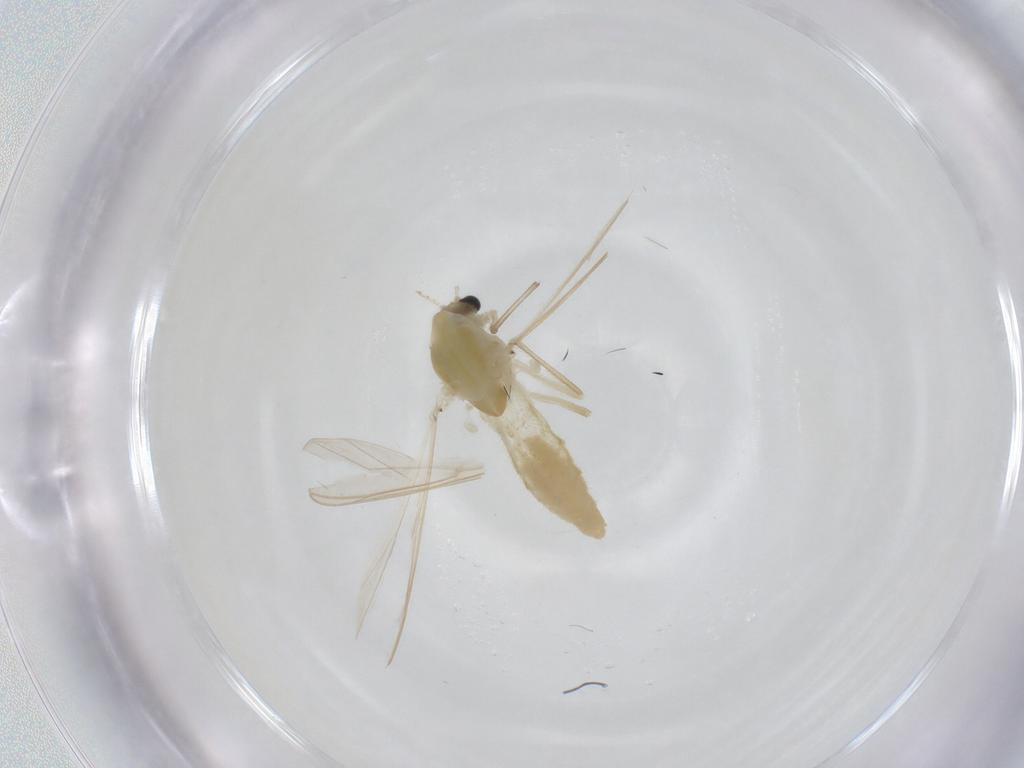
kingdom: Animalia
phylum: Arthropoda
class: Insecta
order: Diptera
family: Chironomidae
